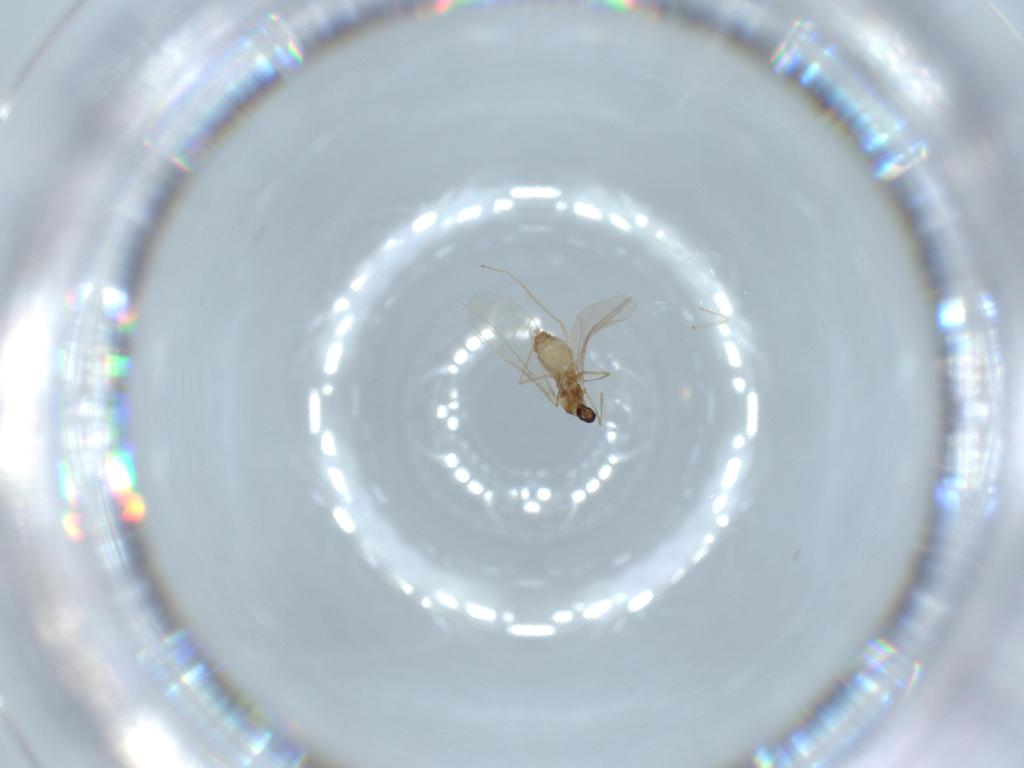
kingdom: Animalia
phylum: Arthropoda
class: Insecta
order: Diptera
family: Cecidomyiidae
